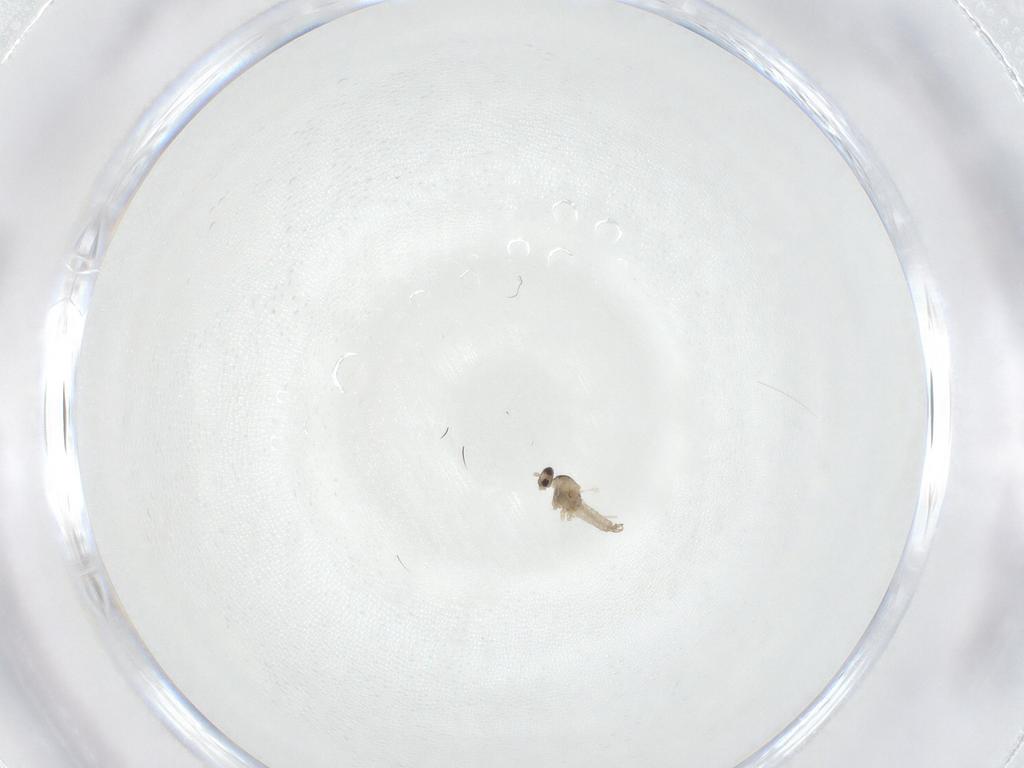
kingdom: Animalia
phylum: Arthropoda
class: Insecta
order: Diptera
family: Cecidomyiidae
